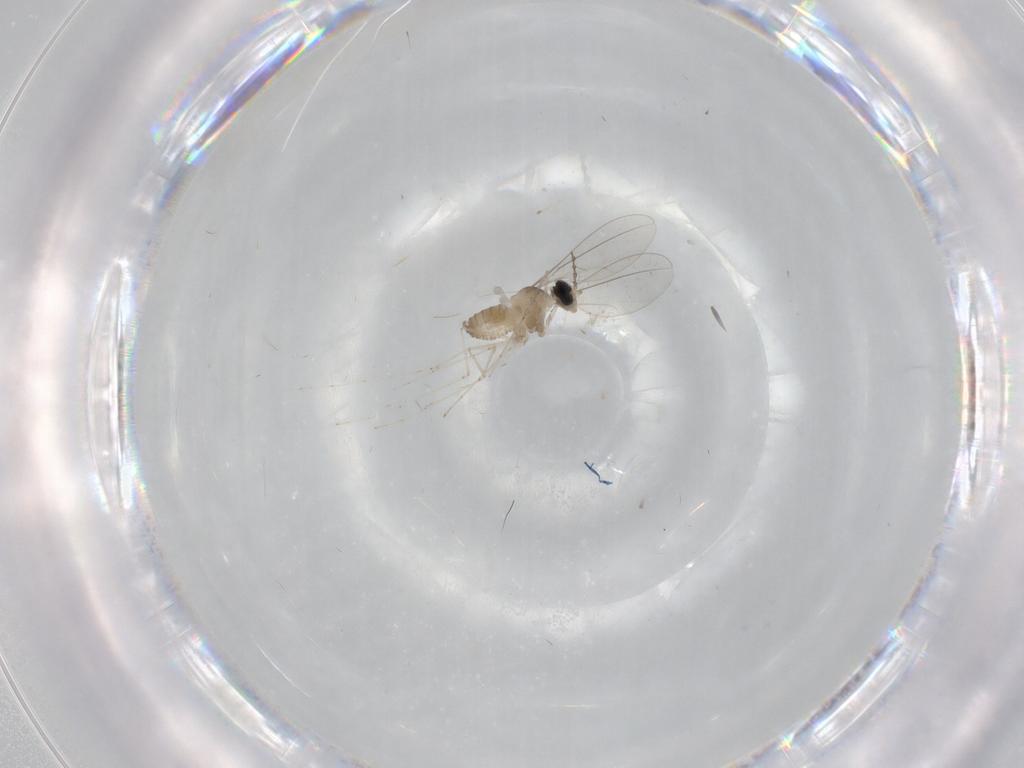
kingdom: Animalia
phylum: Arthropoda
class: Insecta
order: Diptera
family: Cecidomyiidae
